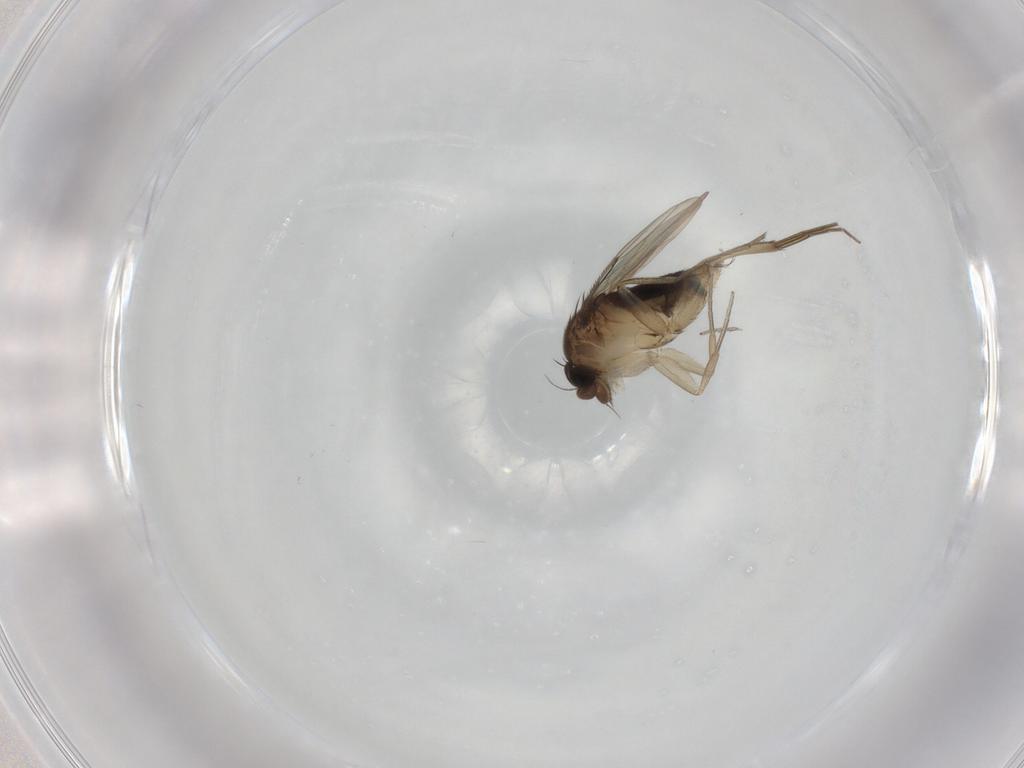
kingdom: Animalia
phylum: Arthropoda
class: Insecta
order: Diptera
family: Phoridae
